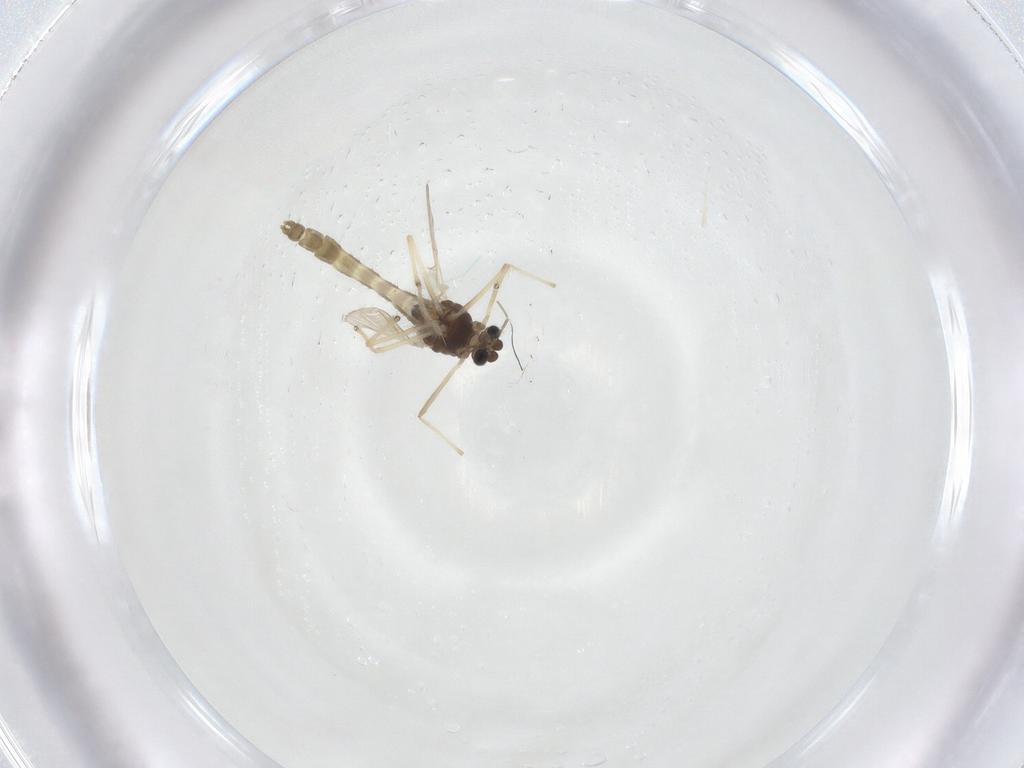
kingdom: Animalia
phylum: Arthropoda
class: Insecta
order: Diptera
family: Chironomidae
